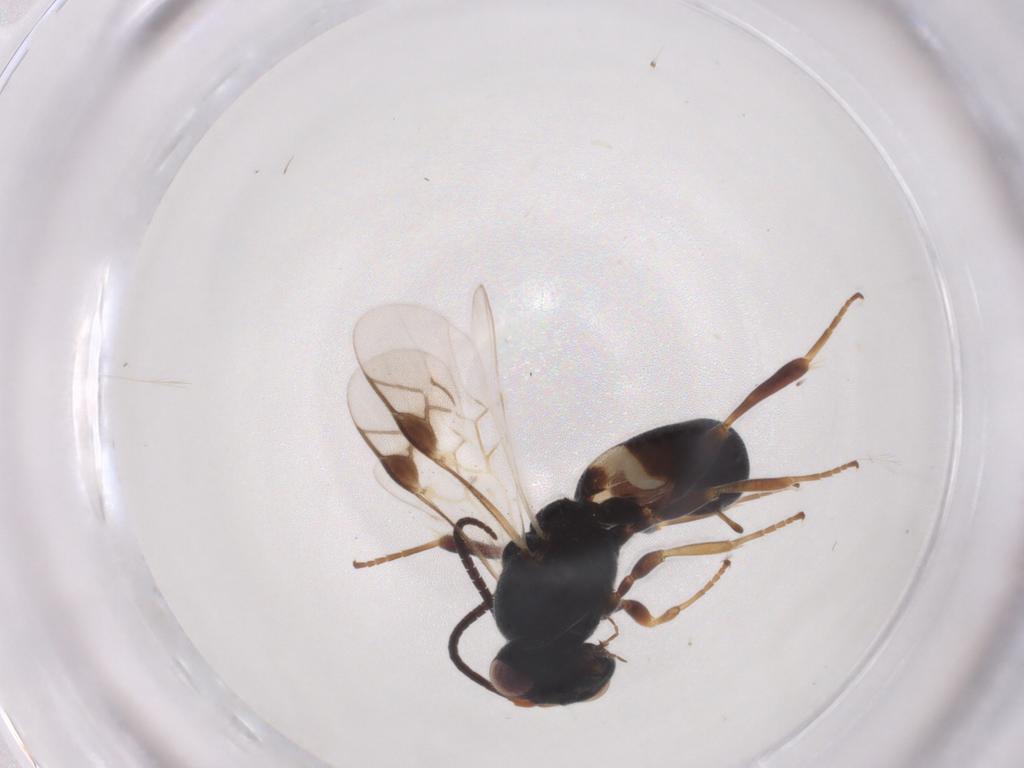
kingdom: Animalia
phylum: Arthropoda
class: Insecta
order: Hymenoptera
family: Braconidae
